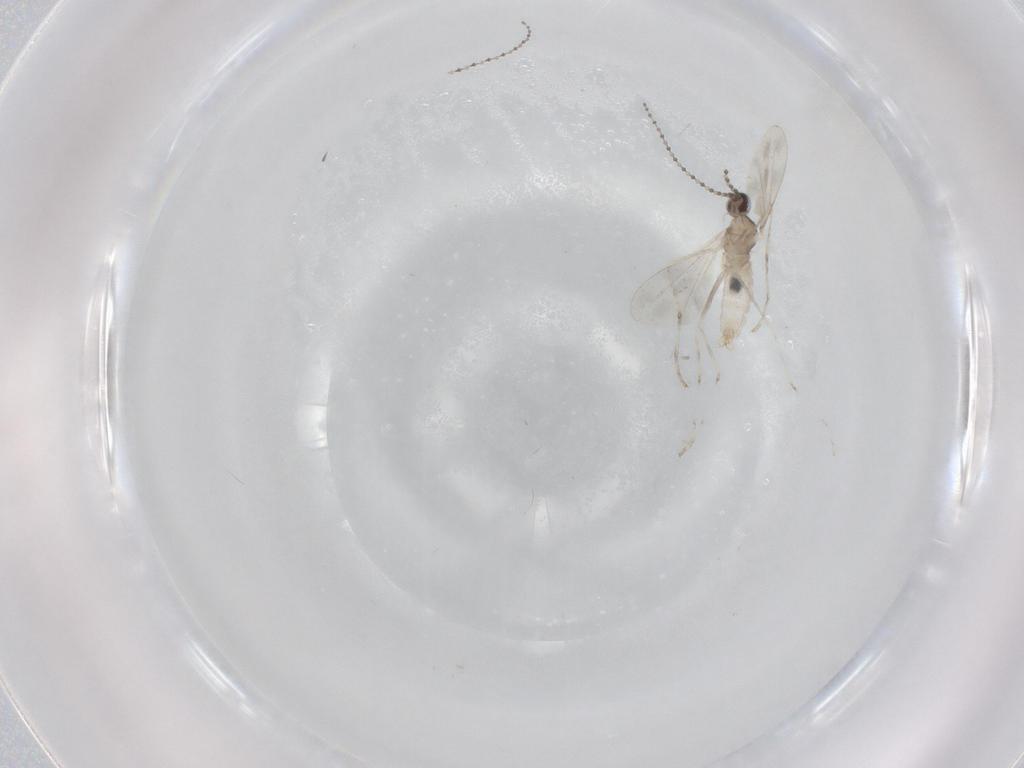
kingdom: Animalia
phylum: Arthropoda
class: Insecta
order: Diptera
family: Cecidomyiidae
